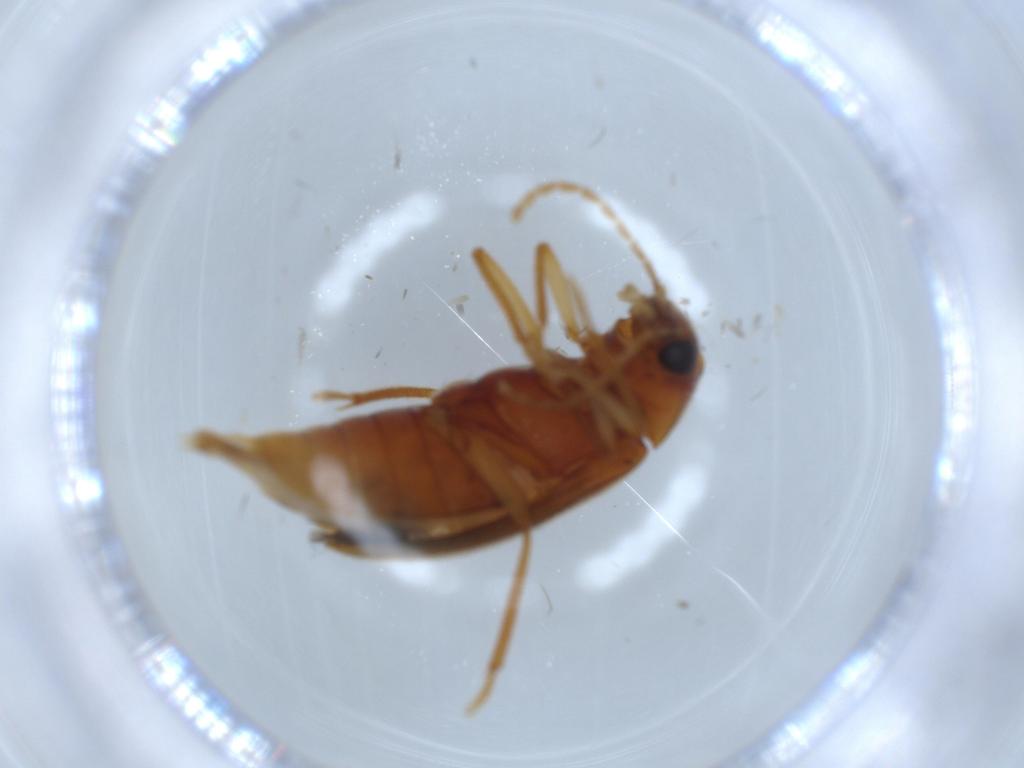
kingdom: Animalia
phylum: Arthropoda
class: Insecta
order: Coleoptera
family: Ptilodactylidae
